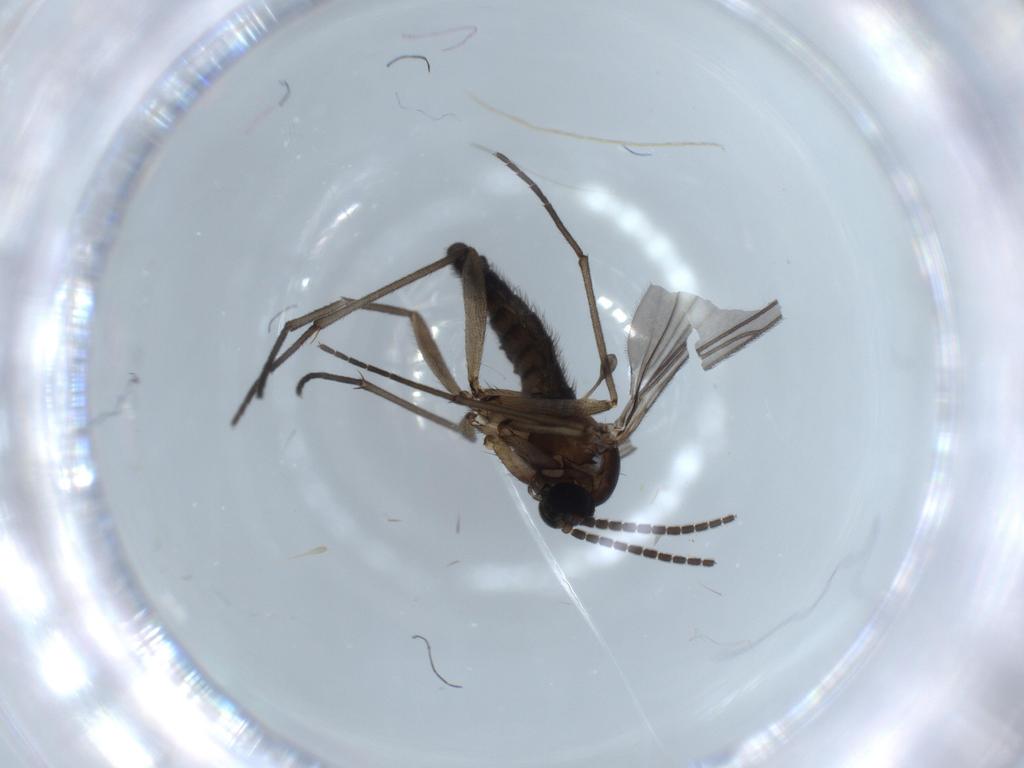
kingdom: Animalia
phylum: Arthropoda
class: Insecta
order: Diptera
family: Sciaridae
